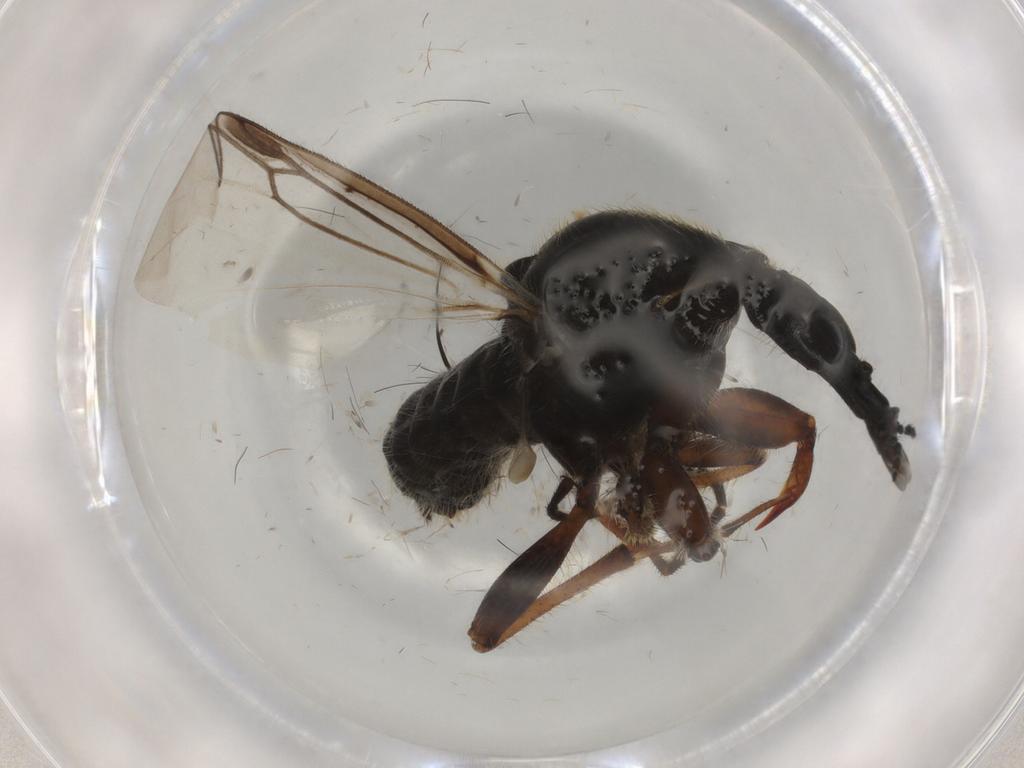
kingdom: Animalia
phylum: Arthropoda
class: Insecta
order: Diptera
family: Bibionidae
